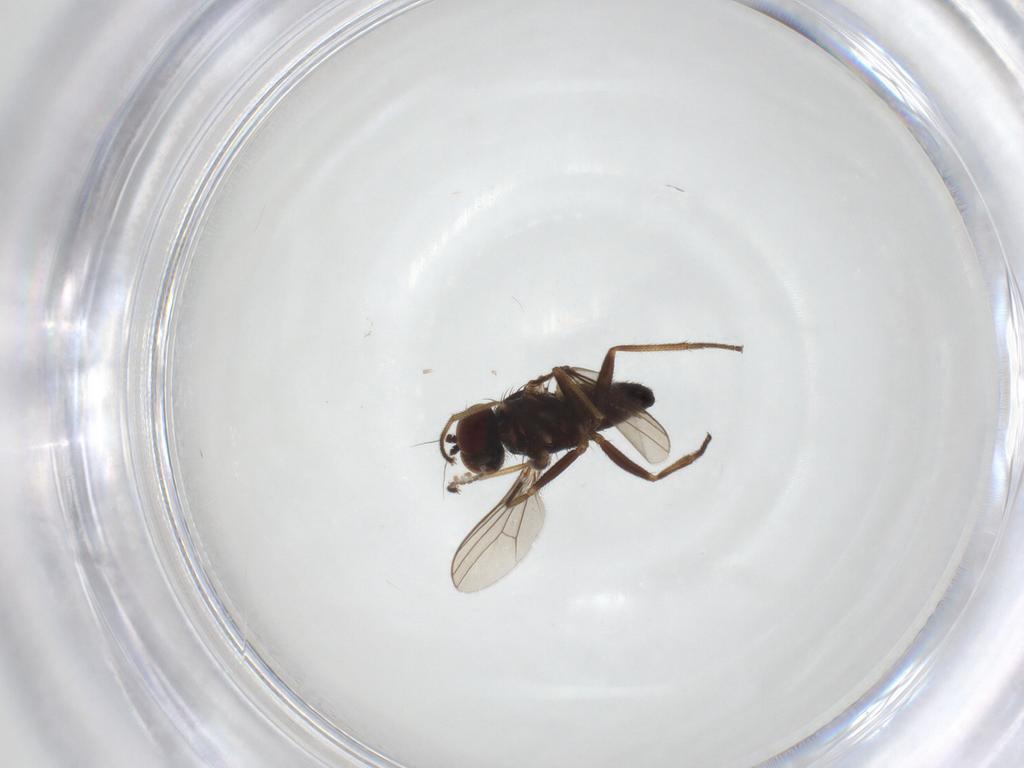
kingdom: Animalia
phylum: Arthropoda
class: Insecta
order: Diptera
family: Dolichopodidae
